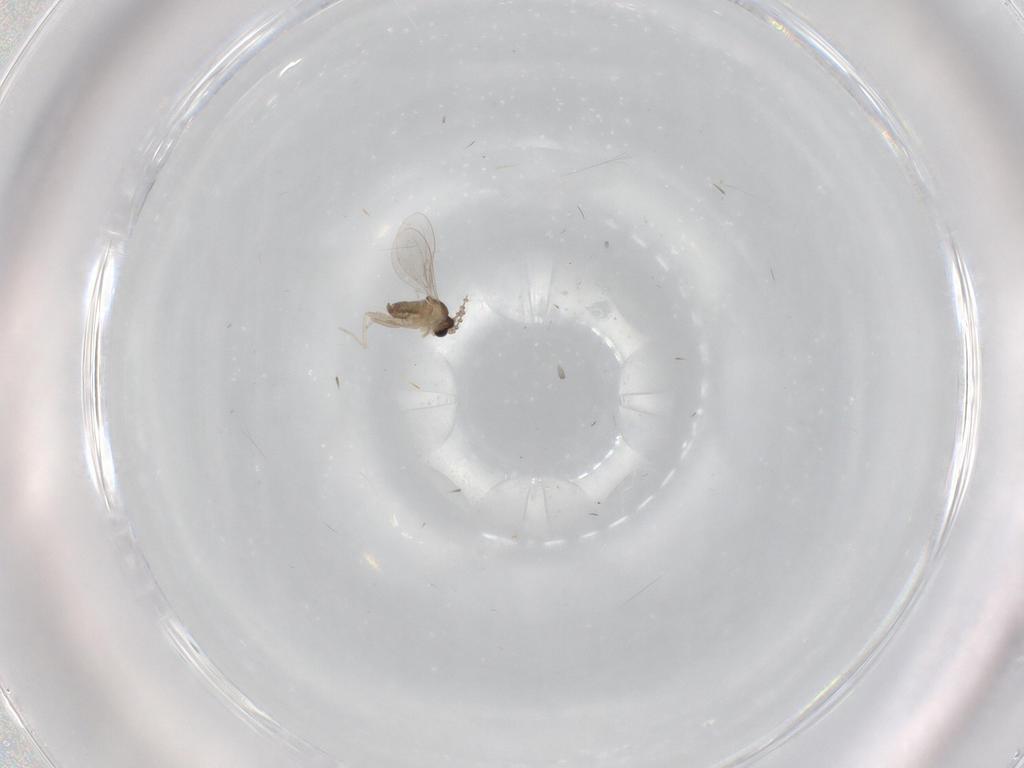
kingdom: Animalia
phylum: Arthropoda
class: Insecta
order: Diptera
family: Cecidomyiidae
